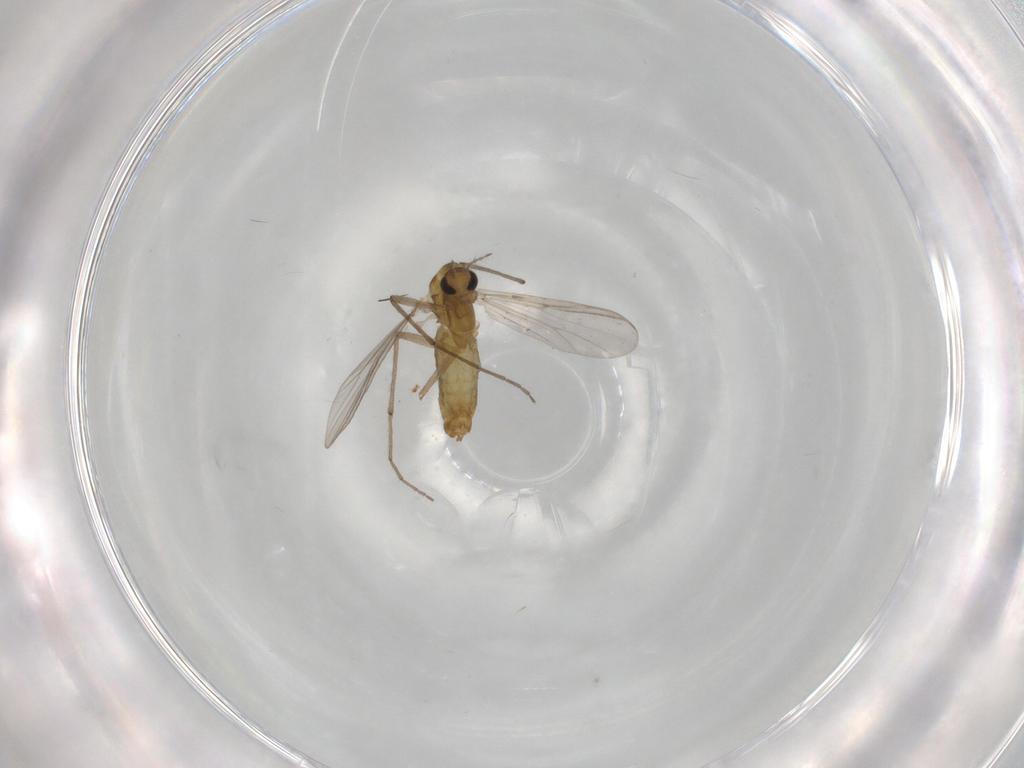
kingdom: Animalia
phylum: Arthropoda
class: Insecta
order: Diptera
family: Chironomidae
